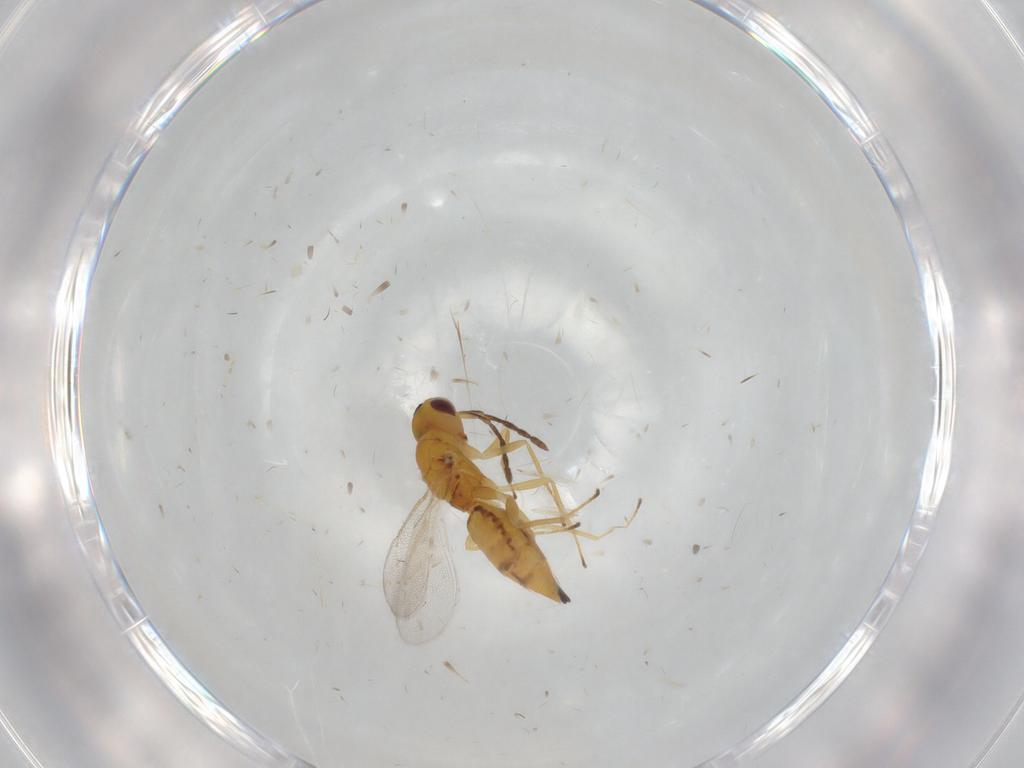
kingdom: Animalia
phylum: Arthropoda
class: Insecta
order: Hymenoptera
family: Eulophidae
